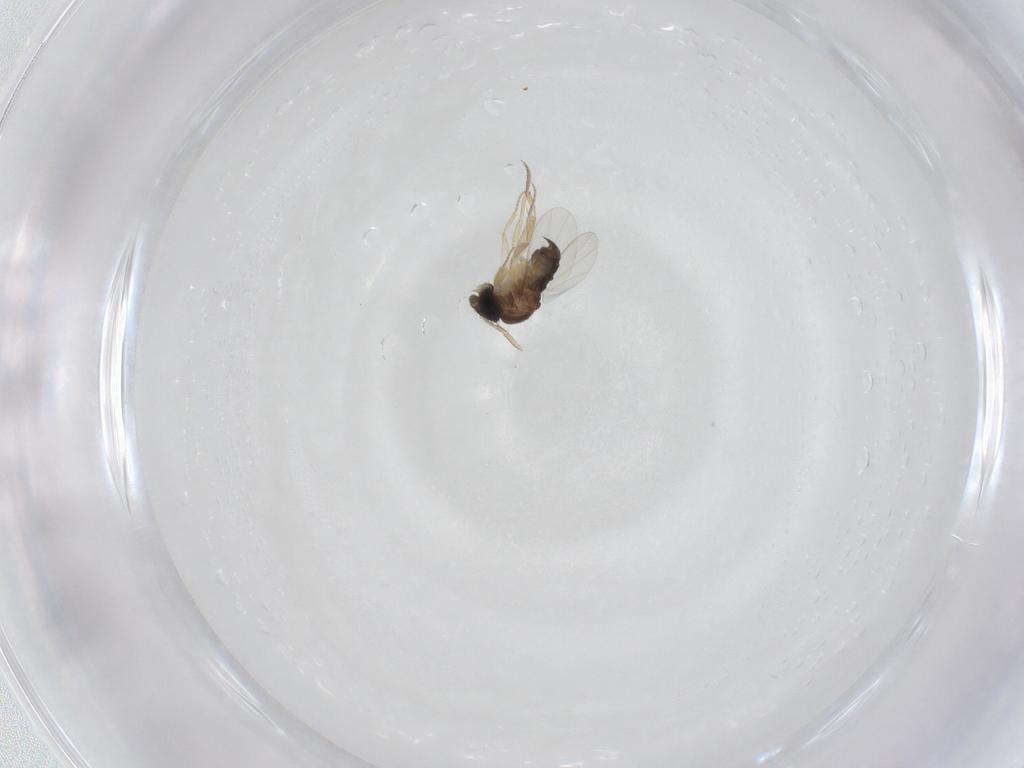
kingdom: Animalia
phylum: Arthropoda
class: Insecta
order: Diptera
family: Phoridae
